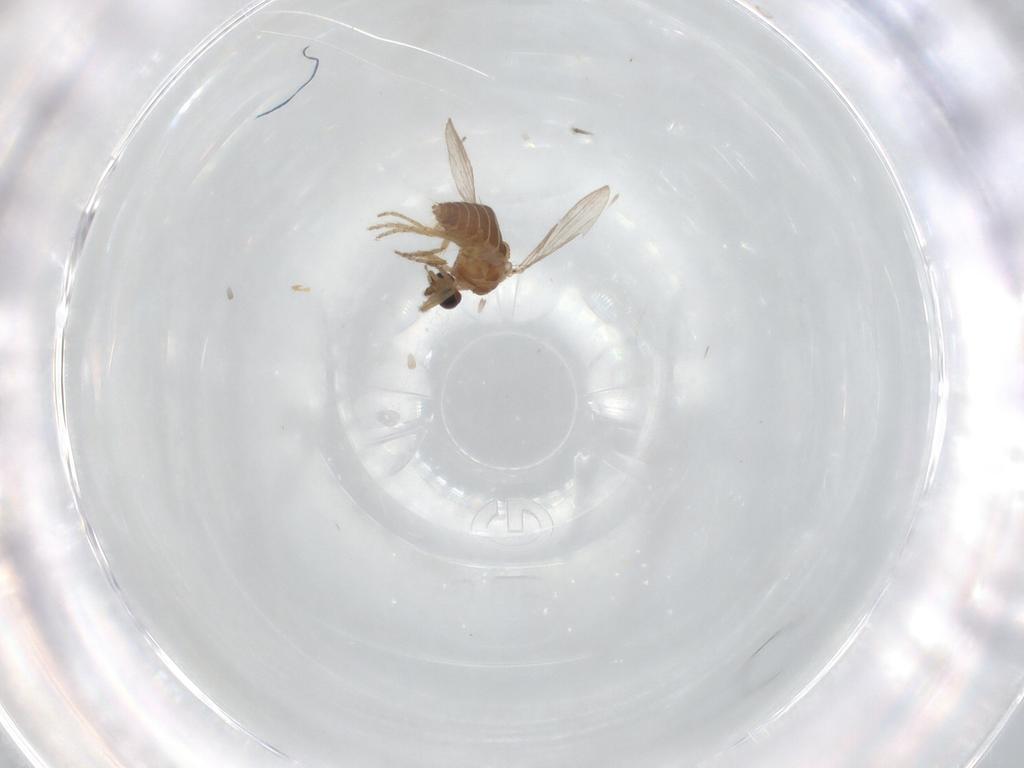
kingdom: Animalia
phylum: Arthropoda
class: Insecta
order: Diptera
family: Ceratopogonidae
